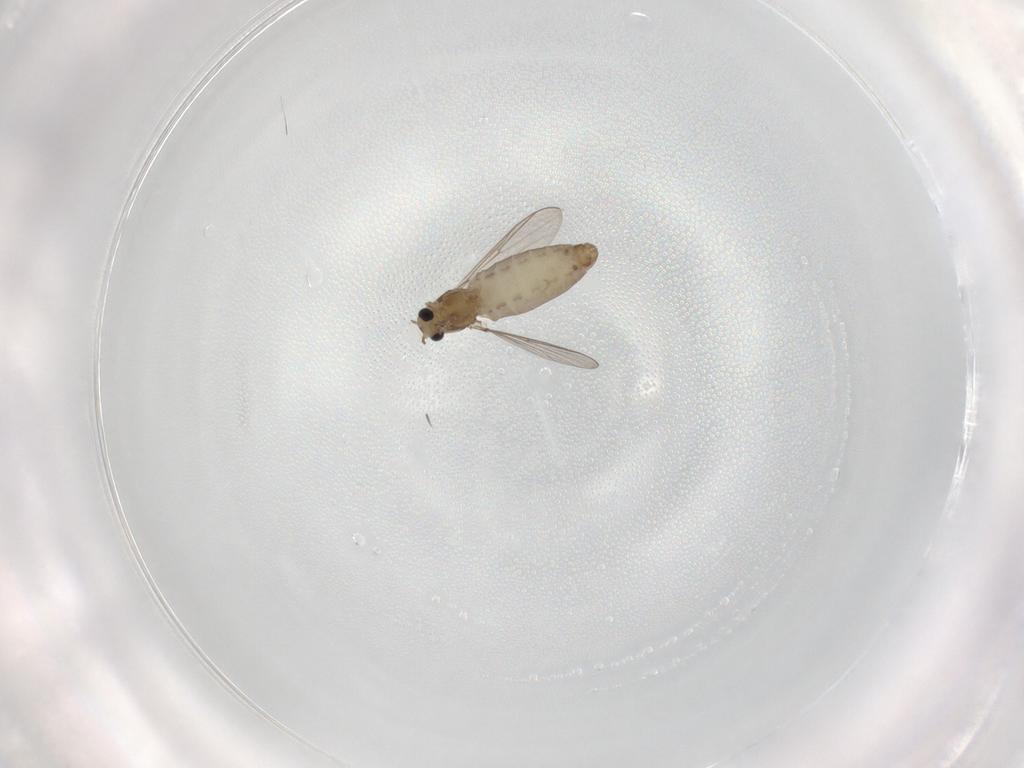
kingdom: Animalia
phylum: Arthropoda
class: Insecta
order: Diptera
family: Chironomidae
